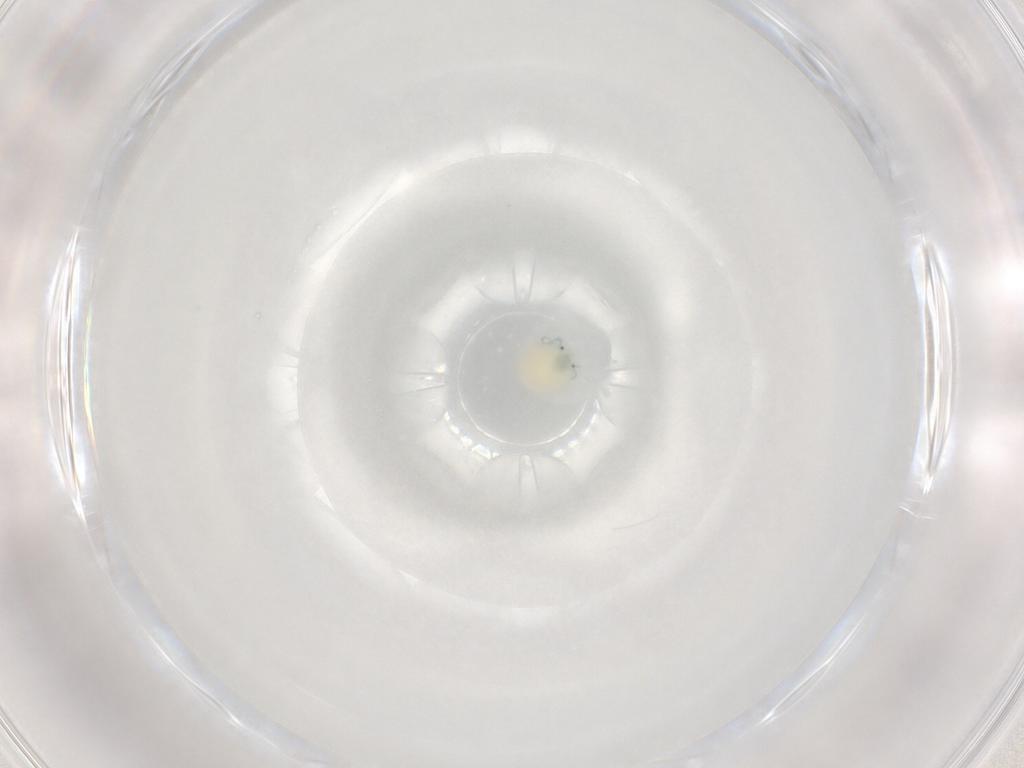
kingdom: Animalia
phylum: Arthropoda
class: Arachnida
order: Trombidiformes
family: Arrenuridae
